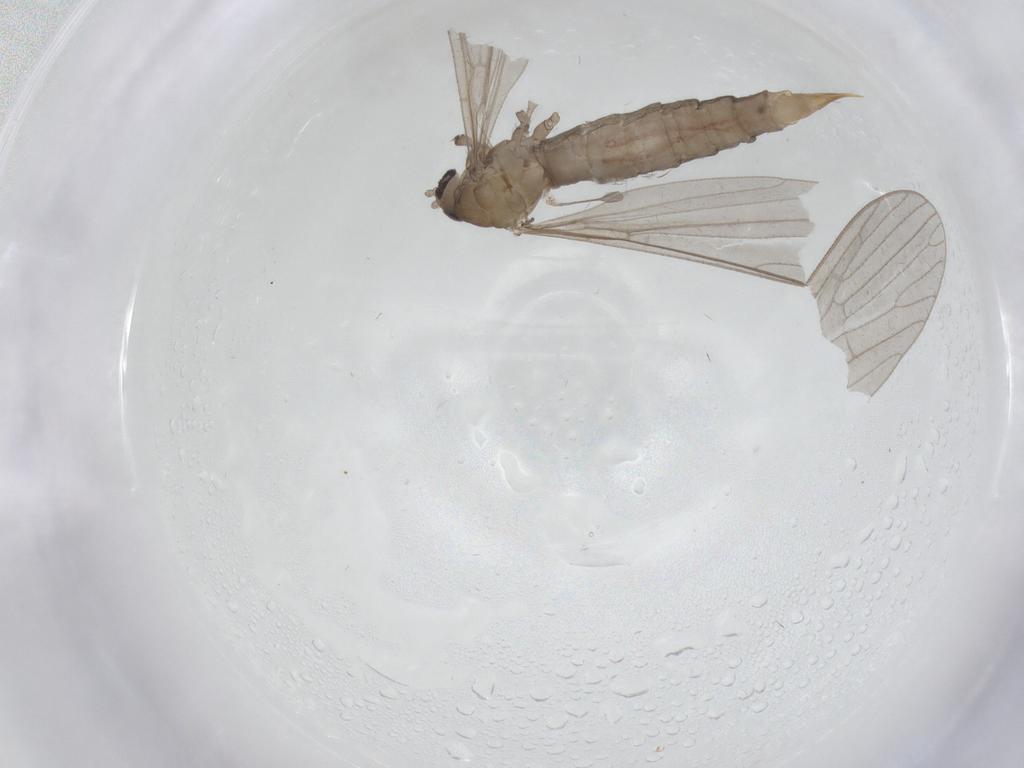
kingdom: Animalia
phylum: Arthropoda
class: Insecta
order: Diptera
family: Limoniidae
